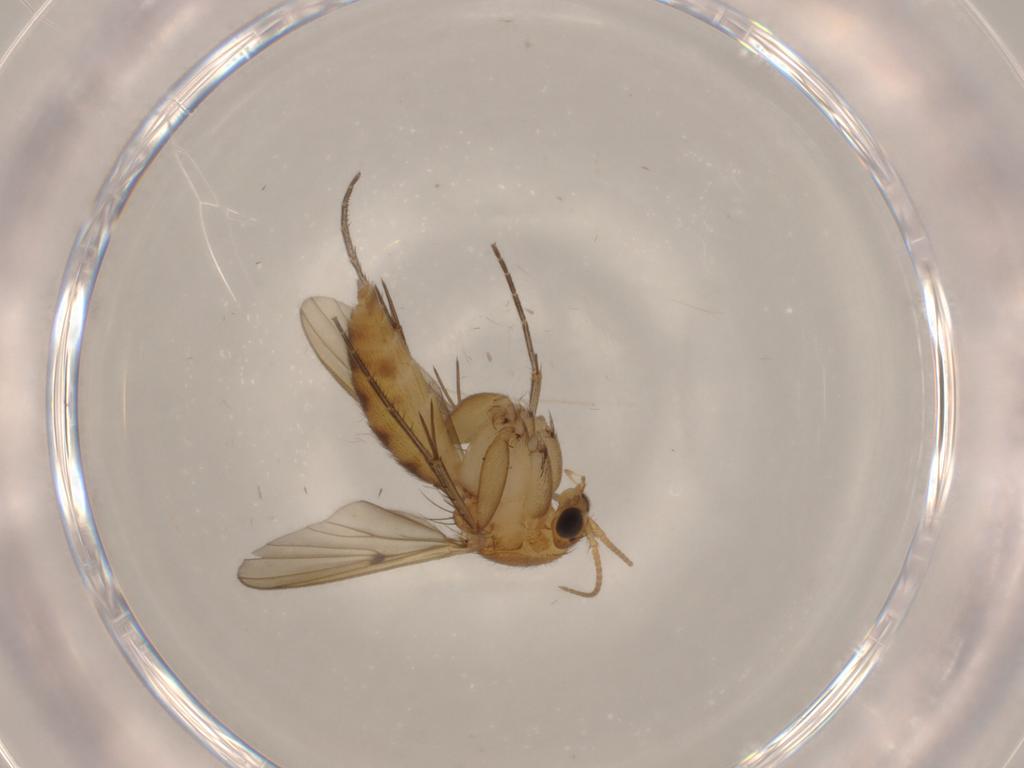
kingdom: Animalia
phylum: Arthropoda
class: Insecta
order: Diptera
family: Mycetophilidae
